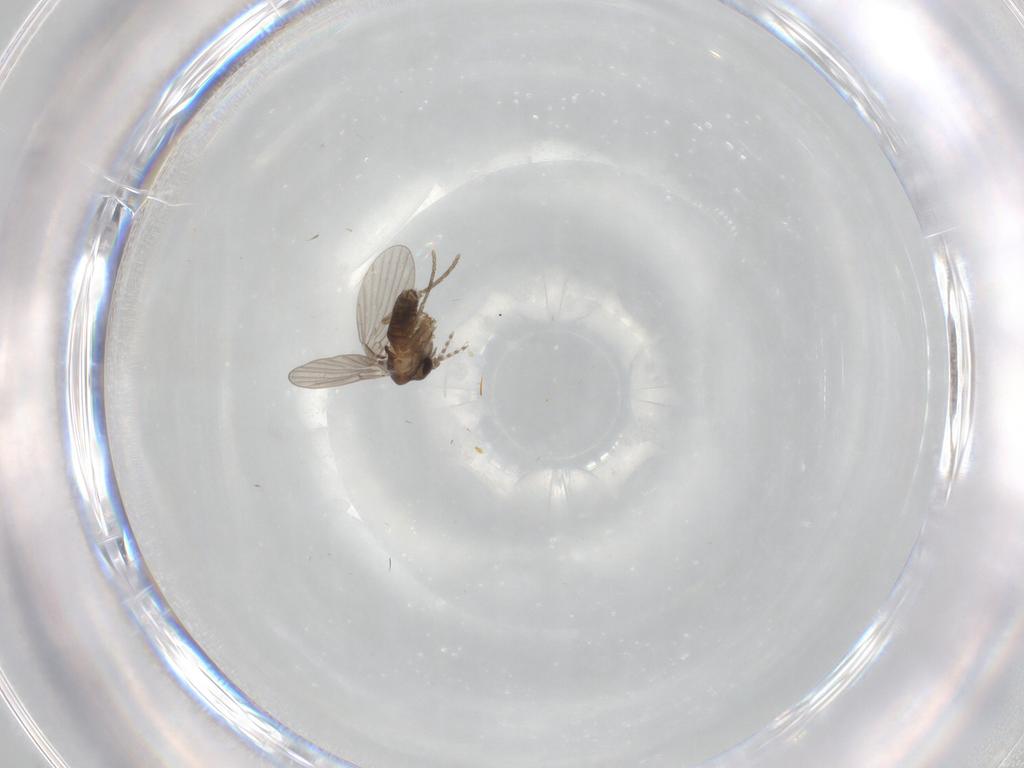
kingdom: Animalia
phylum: Arthropoda
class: Insecta
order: Diptera
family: Psychodidae
